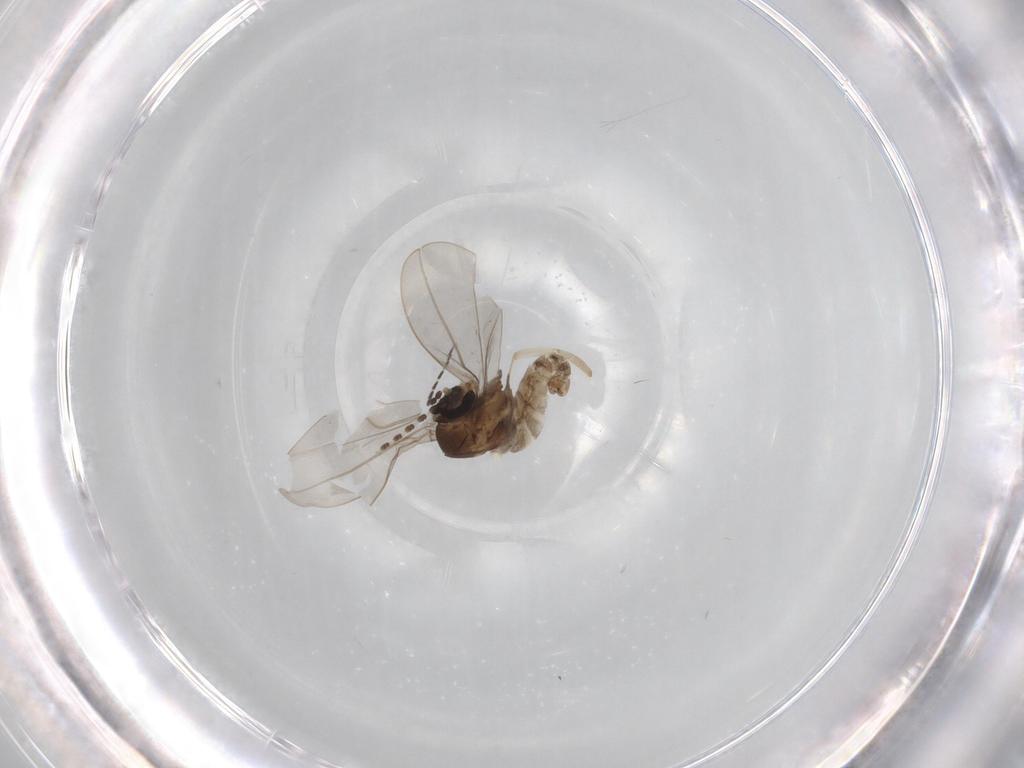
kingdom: Animalia
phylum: Arthropoda
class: Insecta
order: Diptera
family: Cecidomyiidae
